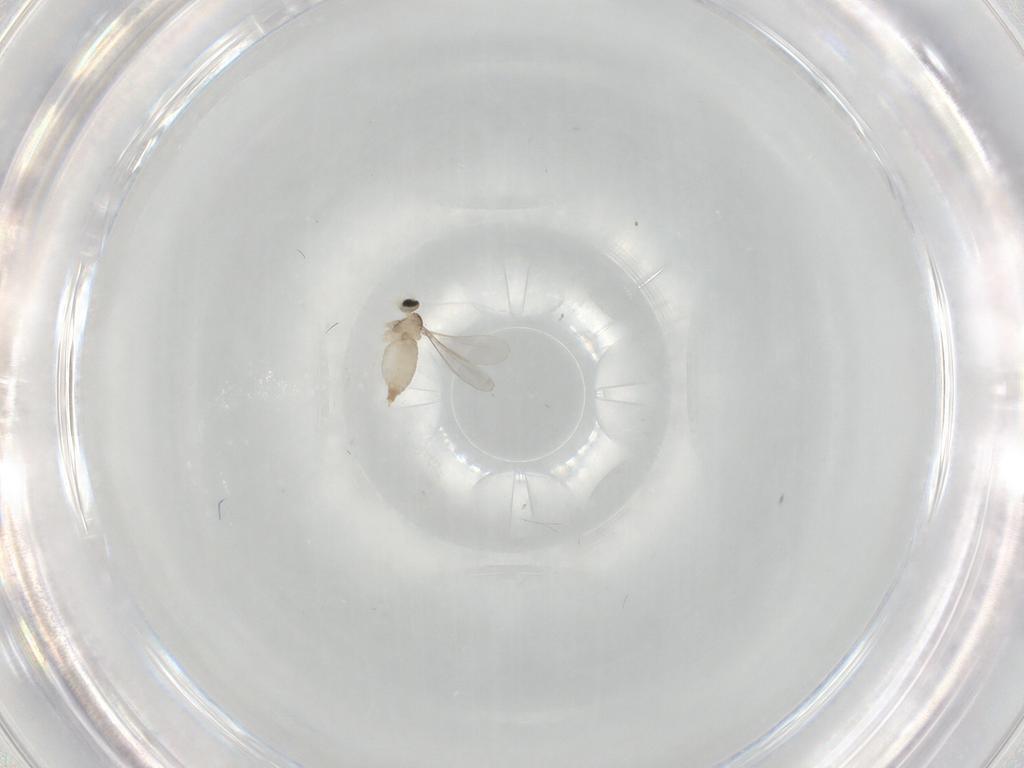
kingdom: Animalia
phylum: Arthropoda
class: Insecta
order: Diptera
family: Cecidomyiidae
